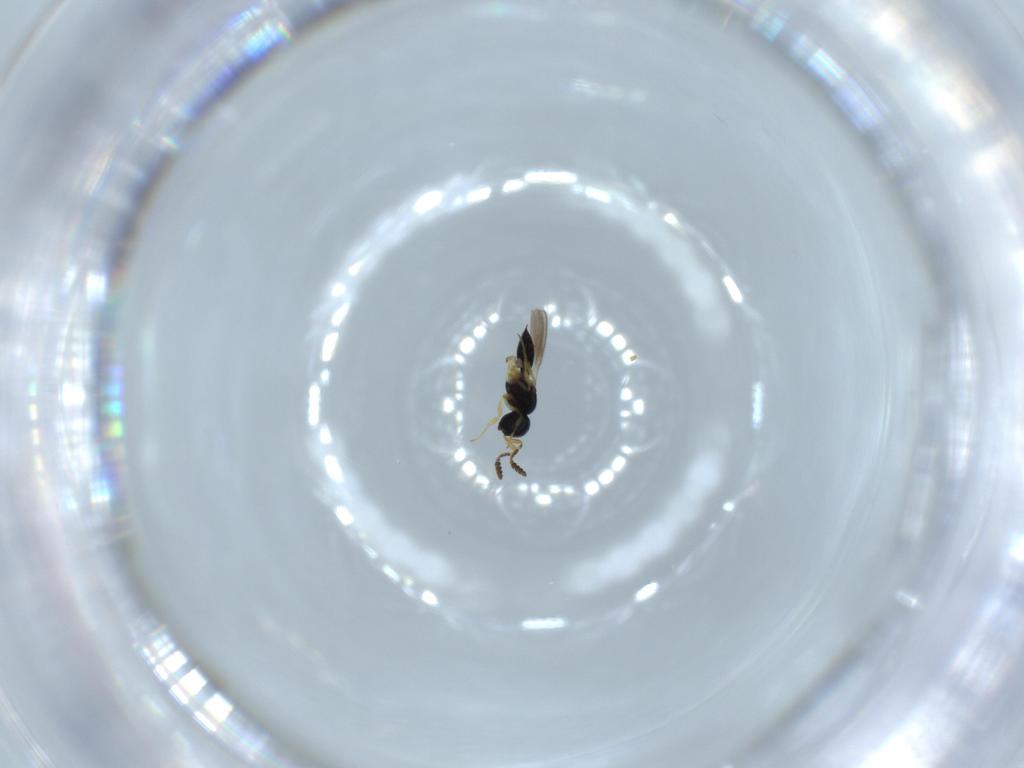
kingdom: Animalia
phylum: Arthropoda
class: Insecta
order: Hymenoptera
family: Scelionidae
